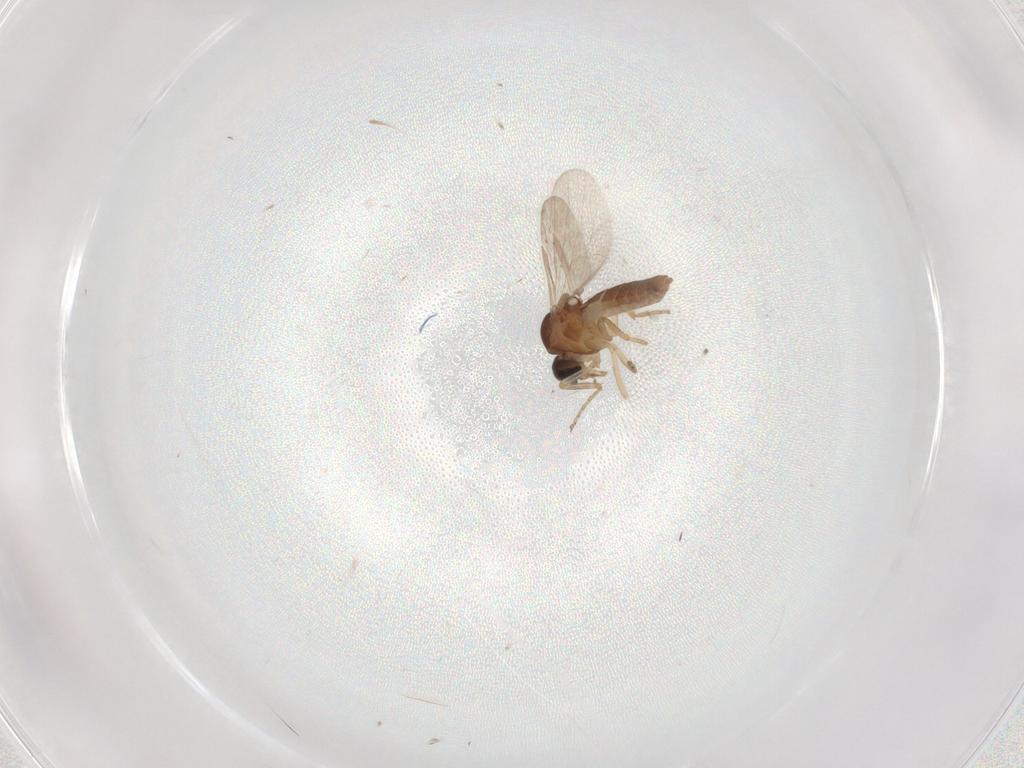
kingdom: Animalia
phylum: Arthropoda
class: Insecta
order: Diptera
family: Ceratopogonidae
